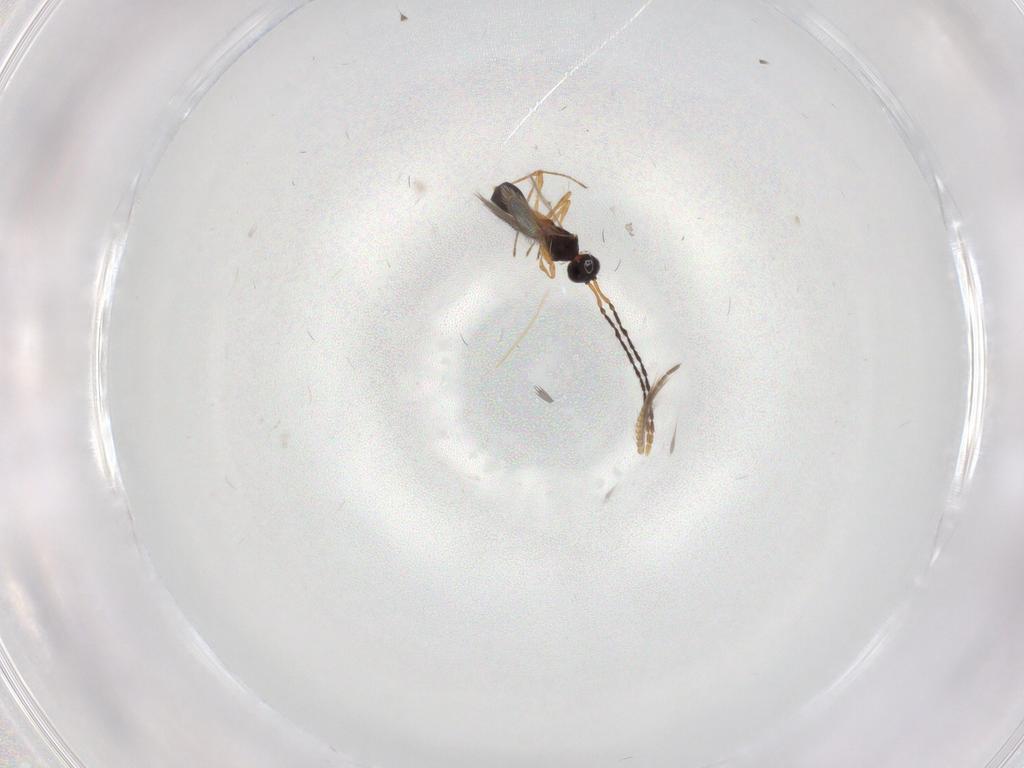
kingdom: Animalia
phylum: Arthropoda
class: Insecta
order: Hymenoptera
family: Diapriidae
